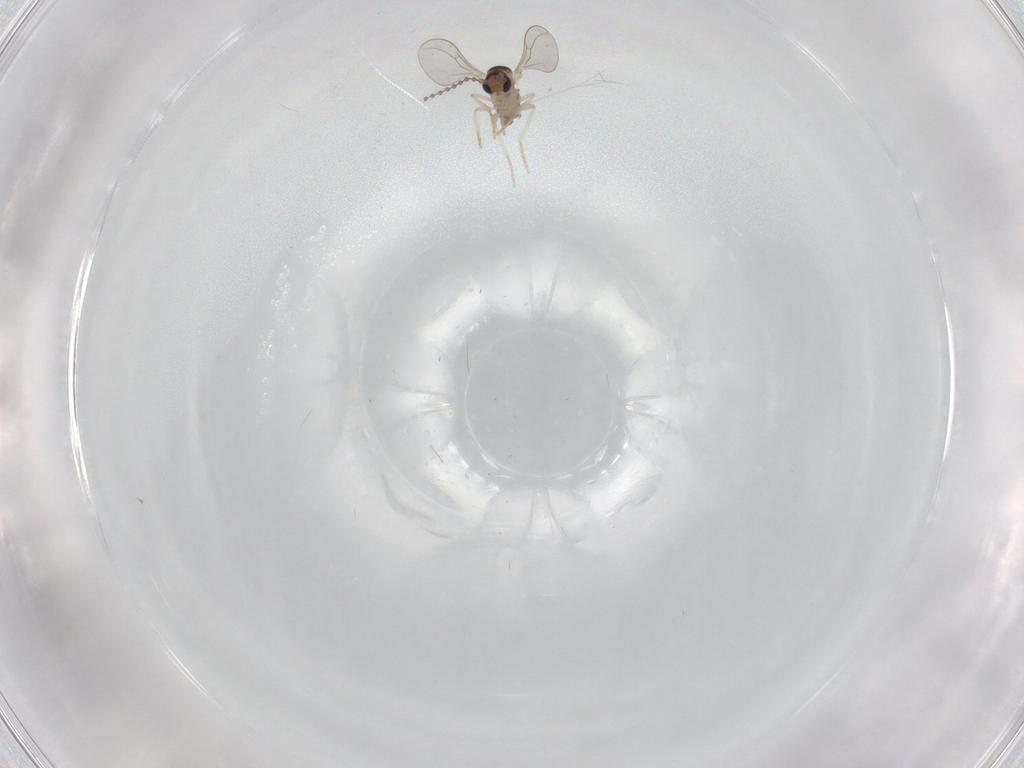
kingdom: Animalia
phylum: Arthropoda
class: Insecta
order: Diptera
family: Cecidomyiidae
